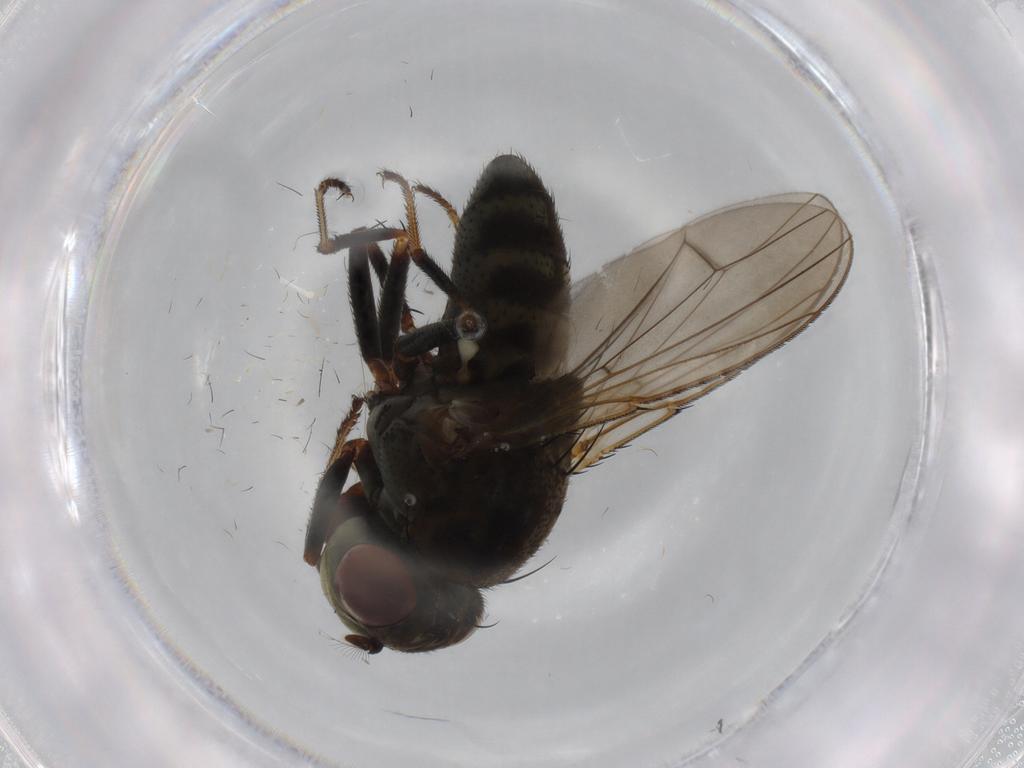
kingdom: Animalia
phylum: Arthropoda
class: Insecta
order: Diptera
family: Ephydridae
